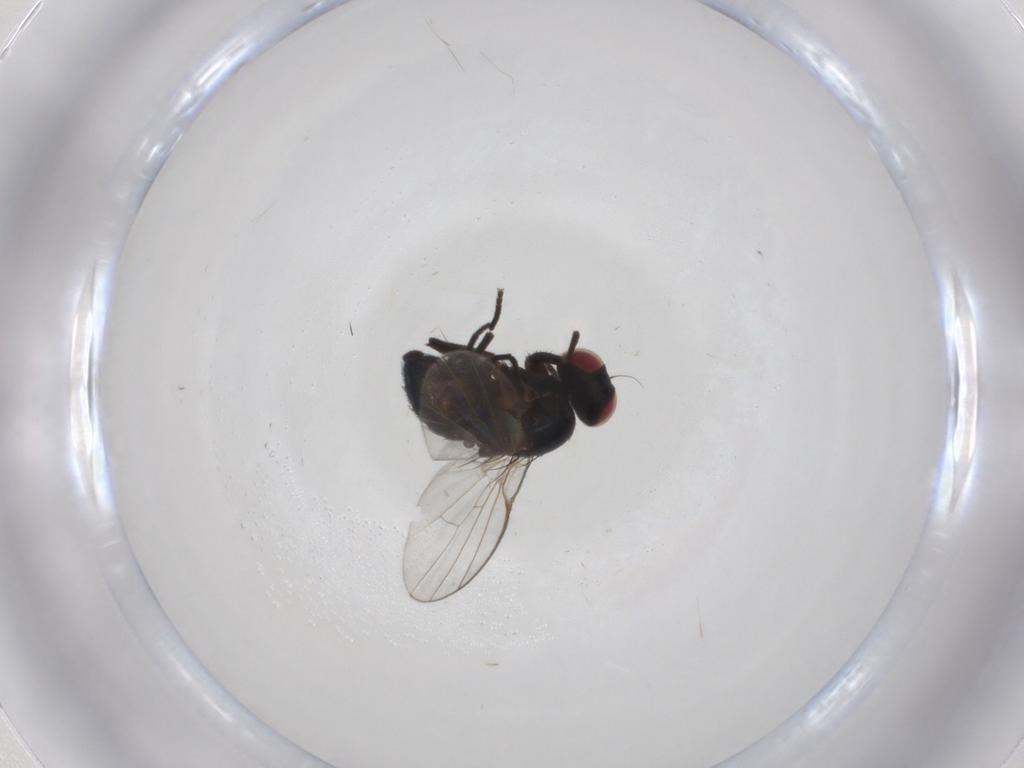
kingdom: Animalia
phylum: Arthropoda
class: Insecta
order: Diptera
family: Agromyzidae
